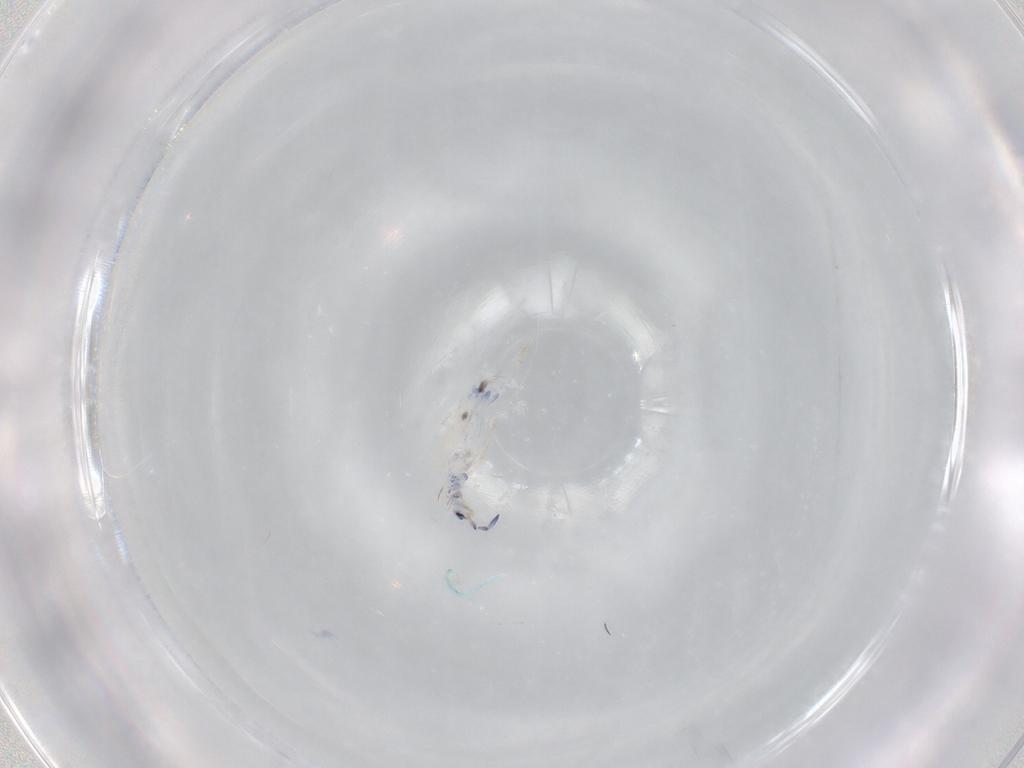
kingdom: Animalia
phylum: Arthropoda
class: Collembola
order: Entomobryomorpha
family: Entomobryidae
